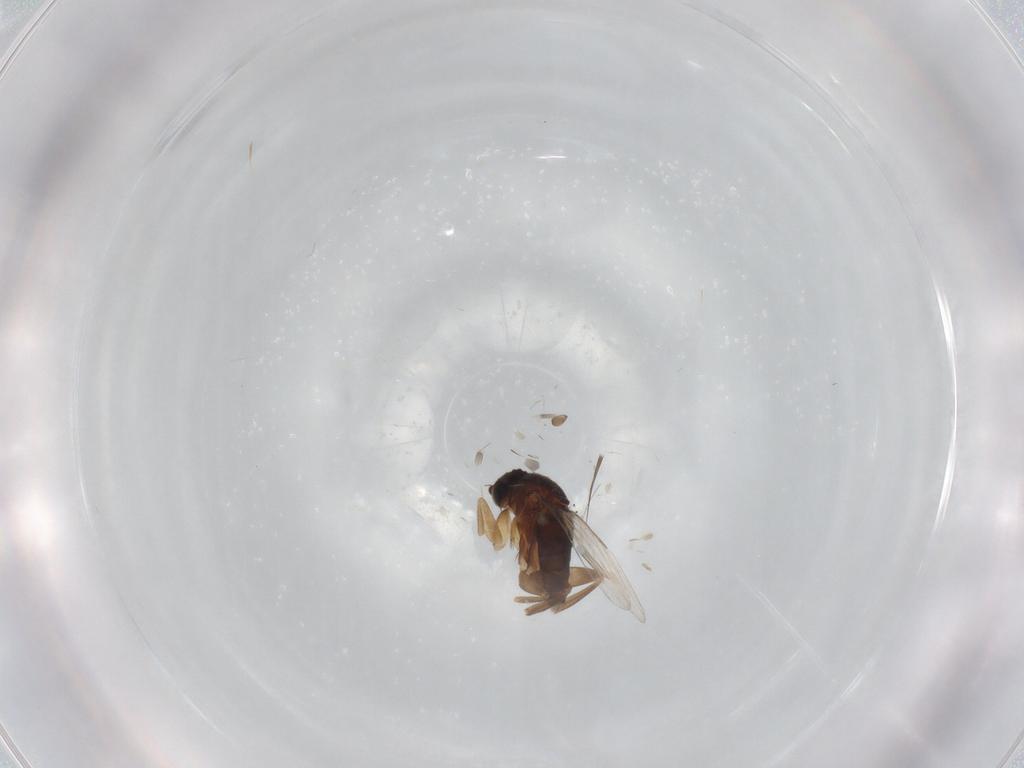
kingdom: Animalia
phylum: Arthropoda
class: Insecta
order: Diptera
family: Phoridae
